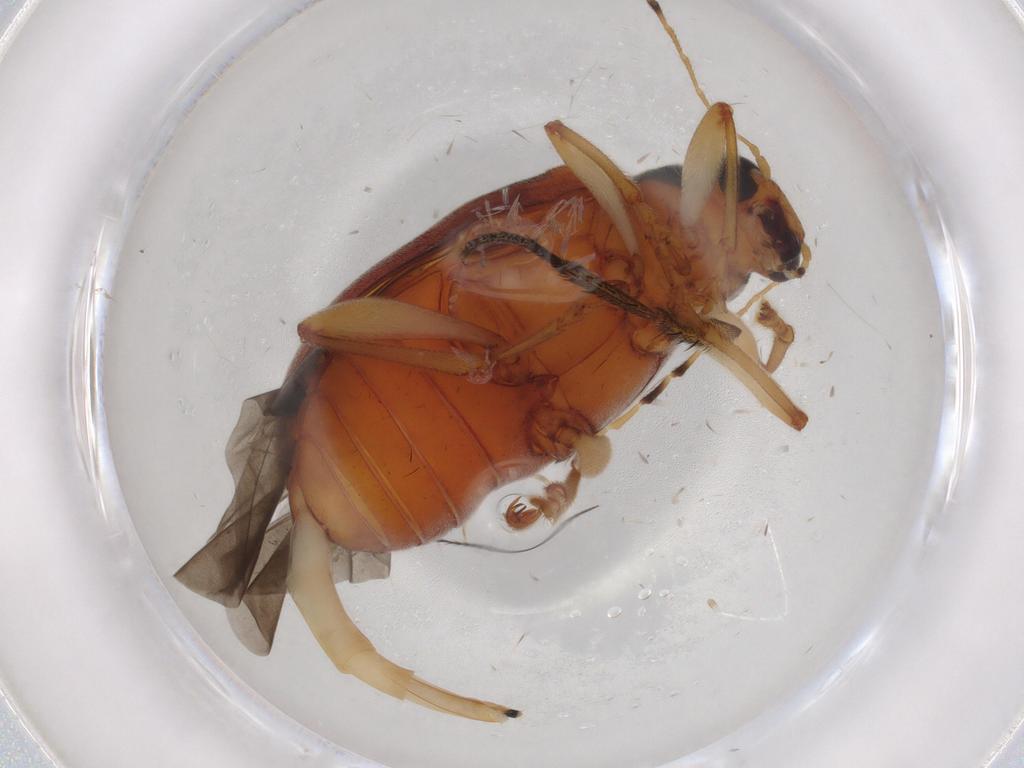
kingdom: Animalia
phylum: Arthropoda
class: Insecta
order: Coleoptera
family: Chrysomelidae
